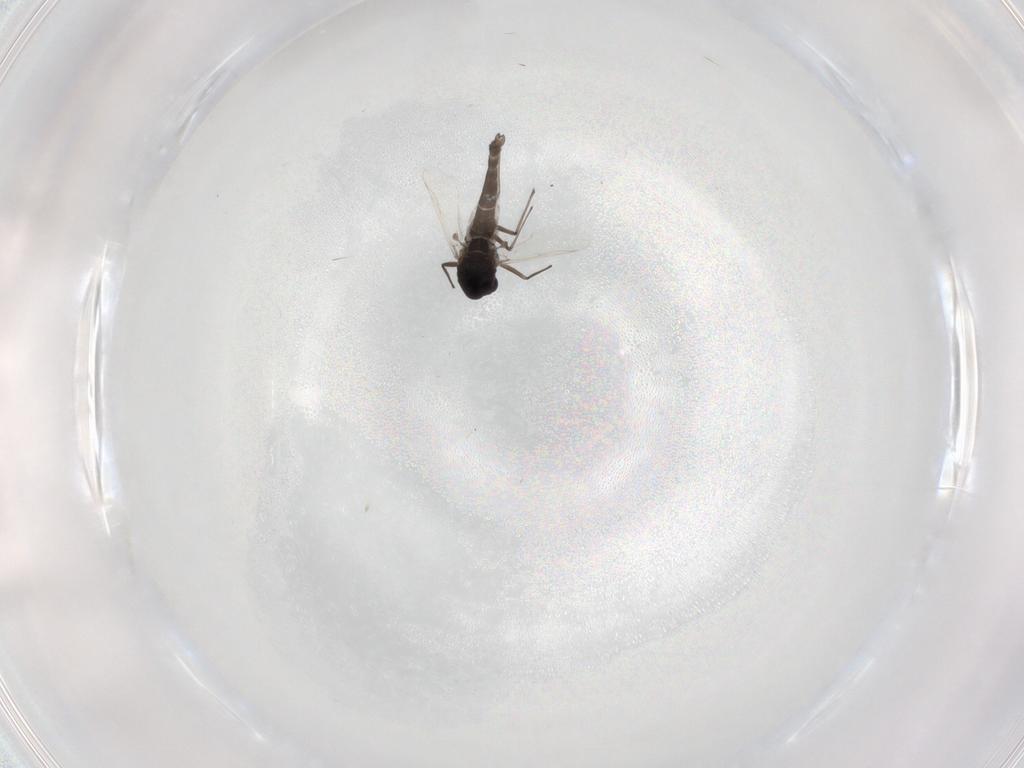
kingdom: Animalia
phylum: Arthropoda
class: Insecta
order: Diptera
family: Chironomidae
